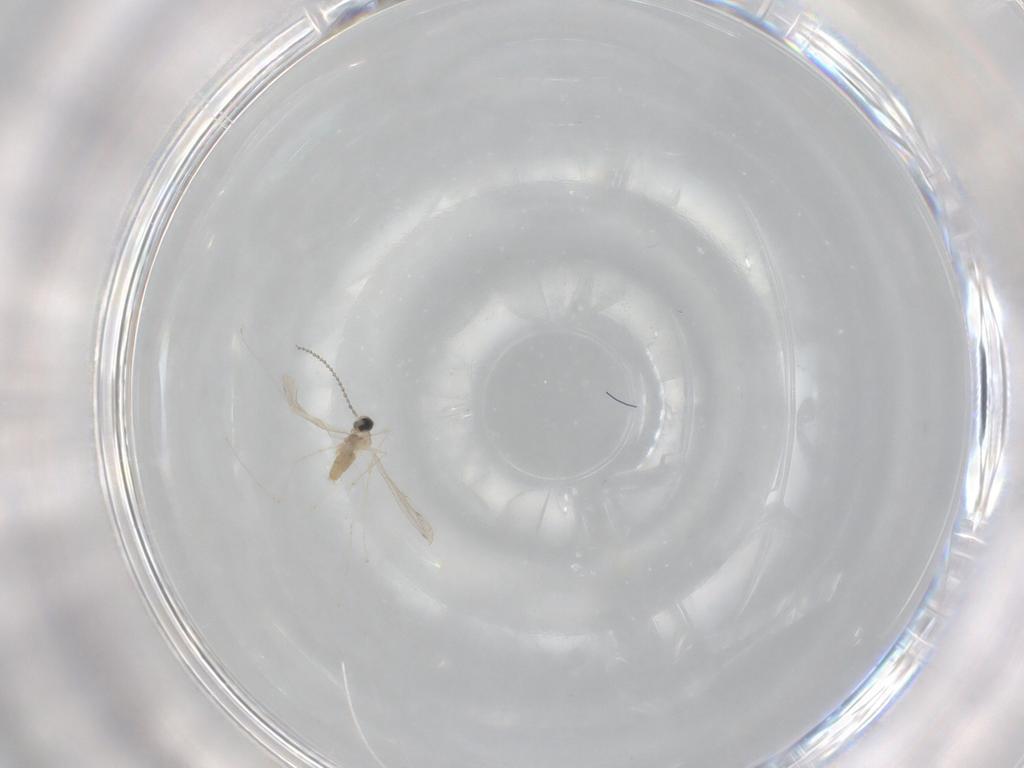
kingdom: Animalia
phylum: Arthropoda
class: Insecta
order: Diptera
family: Cecidomyiidae
